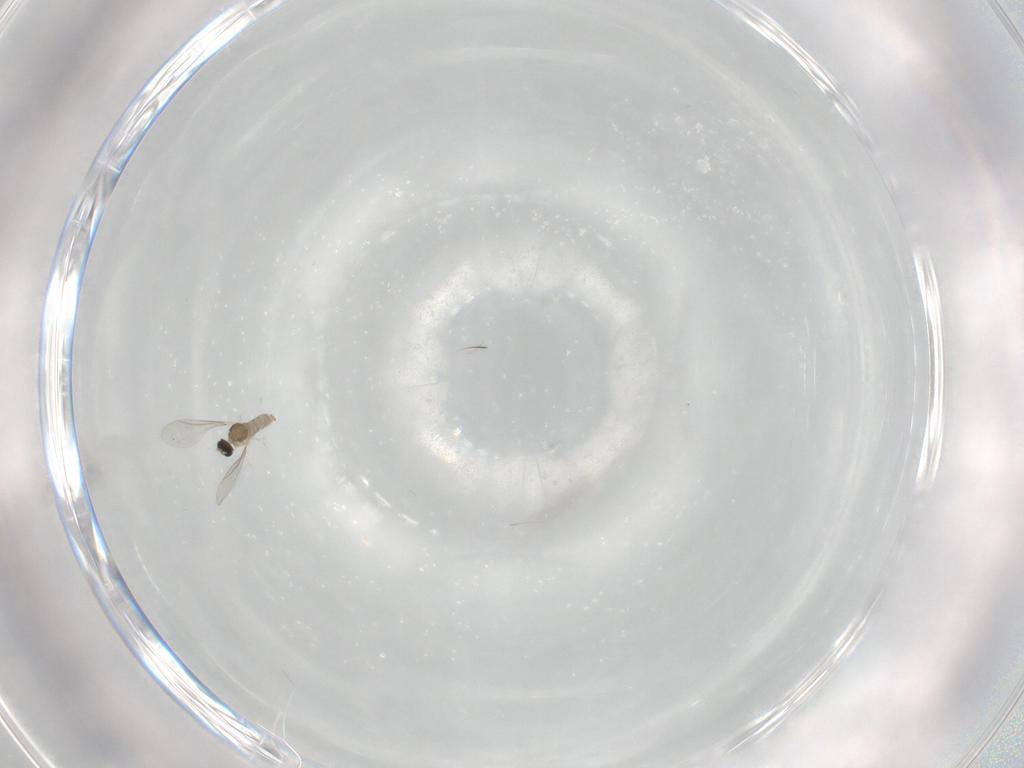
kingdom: Animalia
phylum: Arthropoda
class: Insecta
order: Diptera
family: Cecidomyiidae
